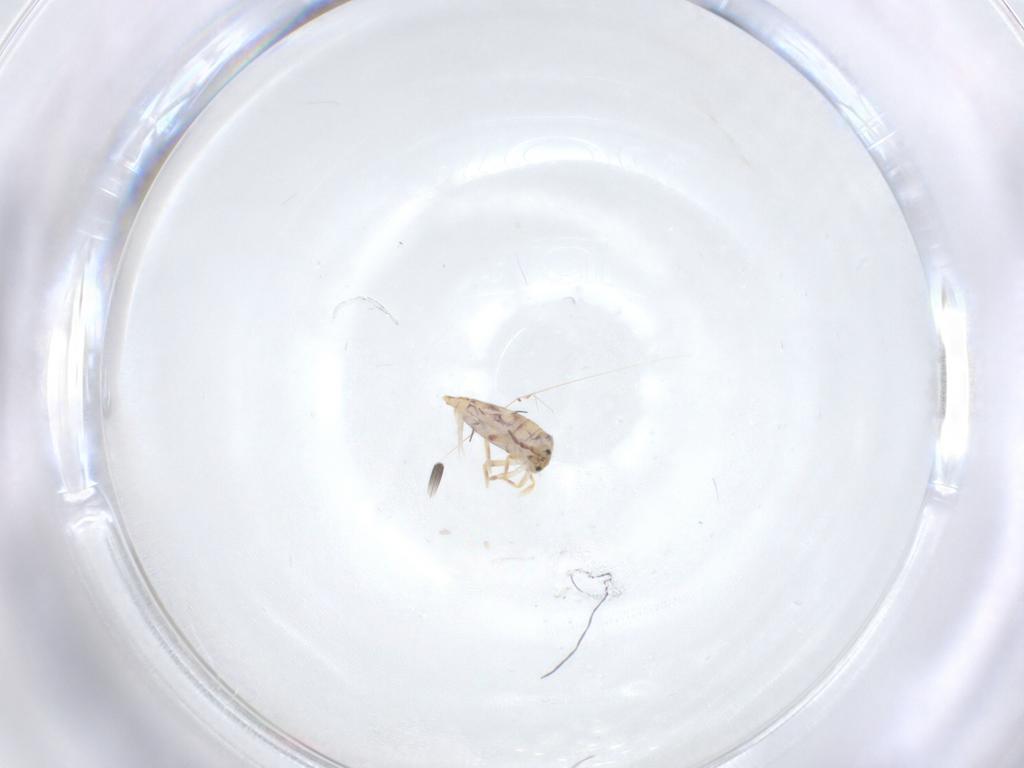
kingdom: Animalia
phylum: Arthropoda
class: Collembola
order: Entomobryomorpha
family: Entomobryidae
